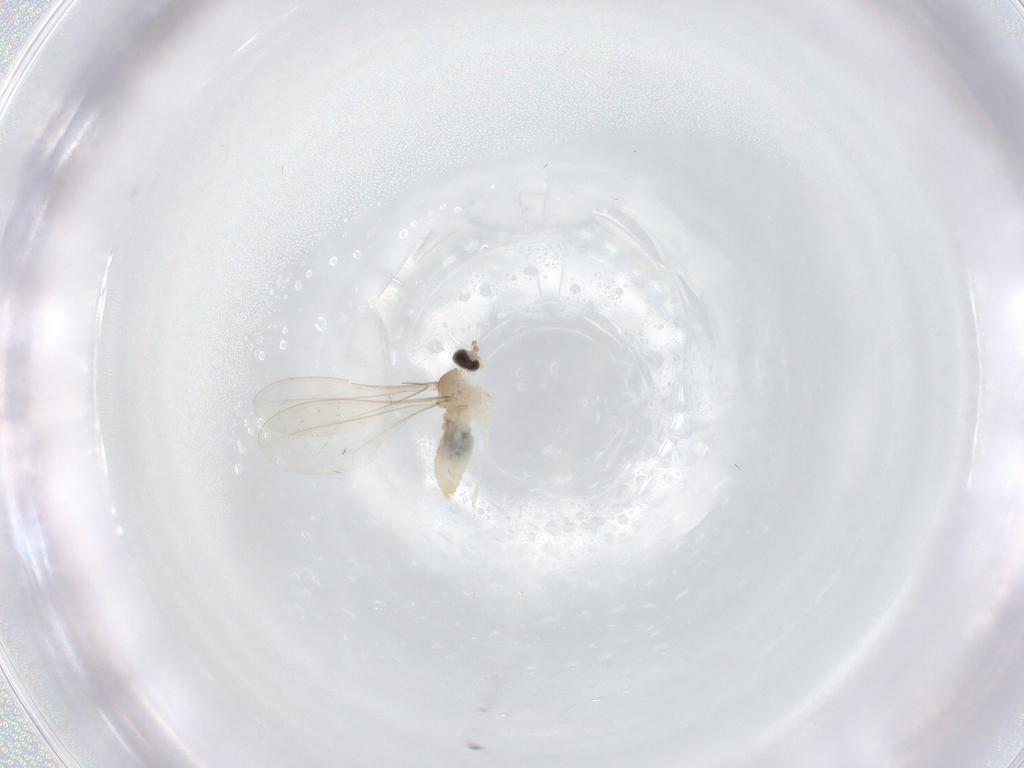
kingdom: Animalia
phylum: Arthropoda
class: Insecta
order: Diptera
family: Cecidomyiidae
